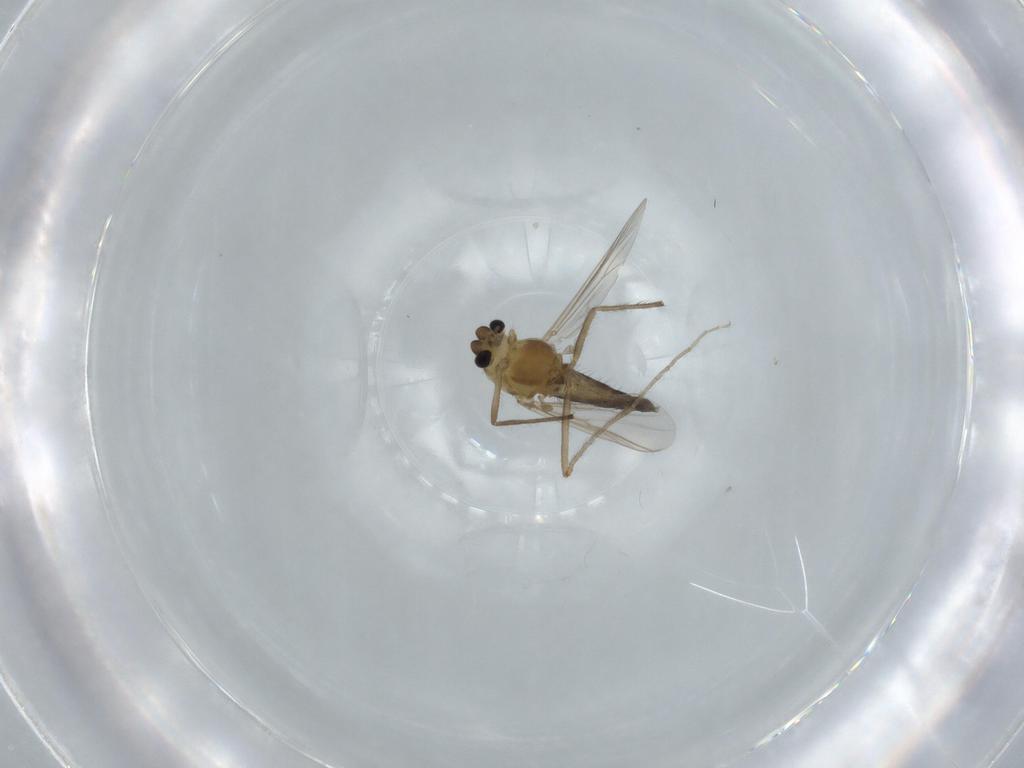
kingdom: Animalia
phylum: Arthropoda
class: Insecta
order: Diptera
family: Chironomidae
